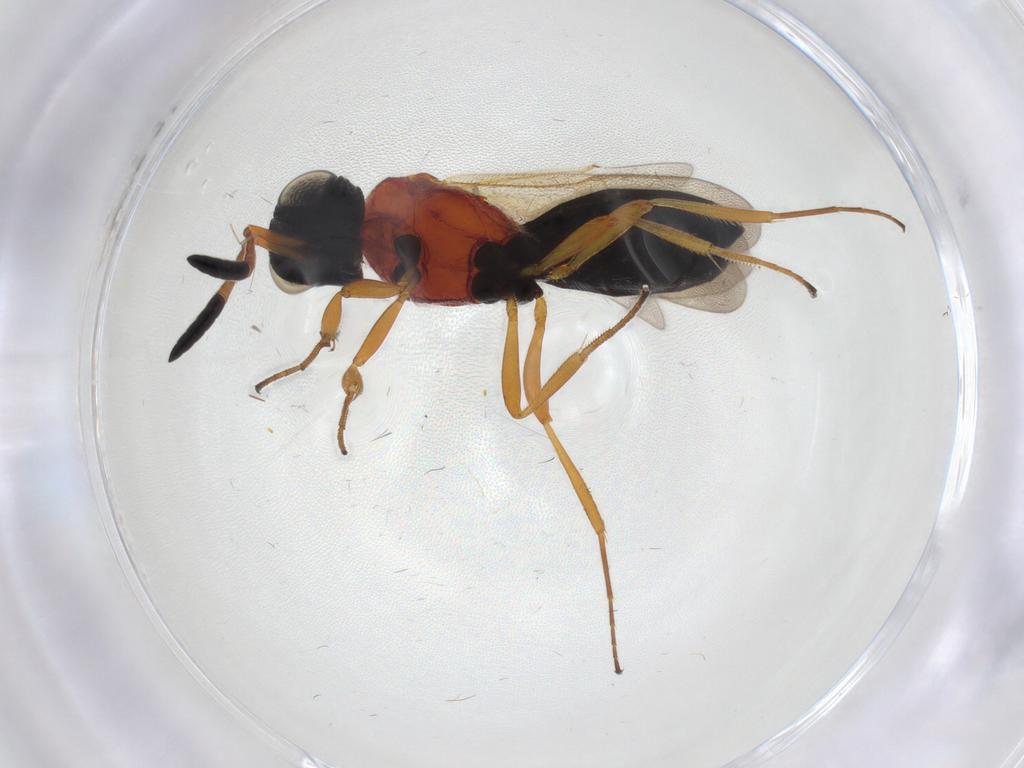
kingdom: Animalia
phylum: Arthropoda
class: Insecta
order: Hymenoptera
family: Scelionidae
